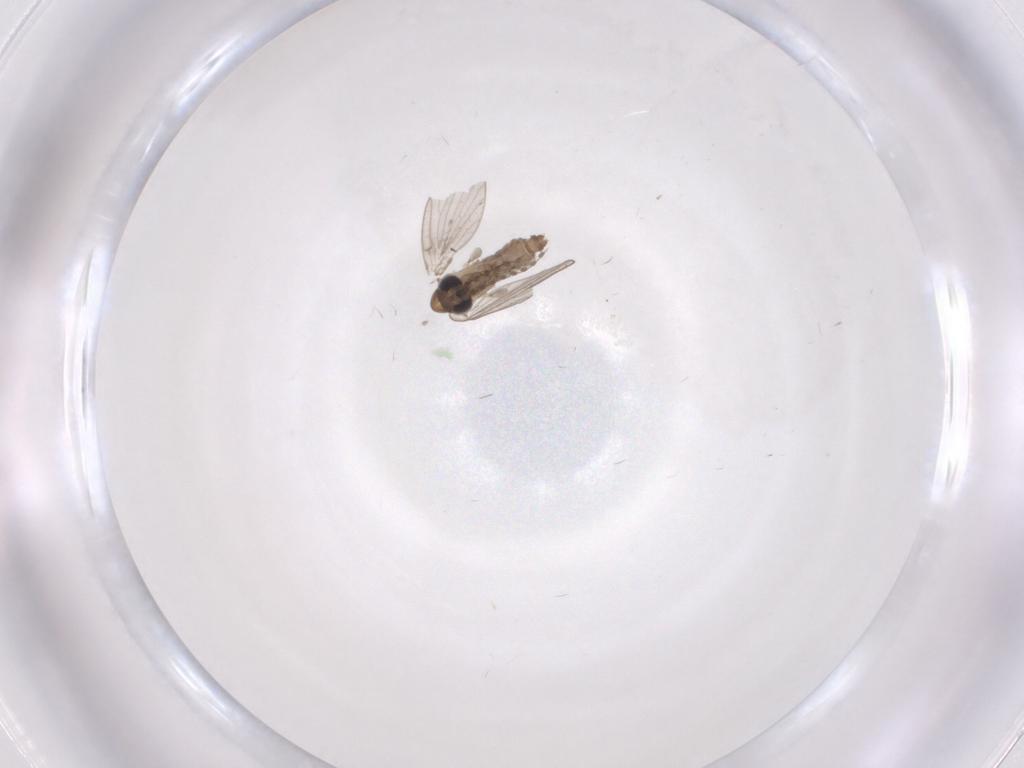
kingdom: Animalia
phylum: Arthropoda
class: Insecta
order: Diptera
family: Psychodidae
